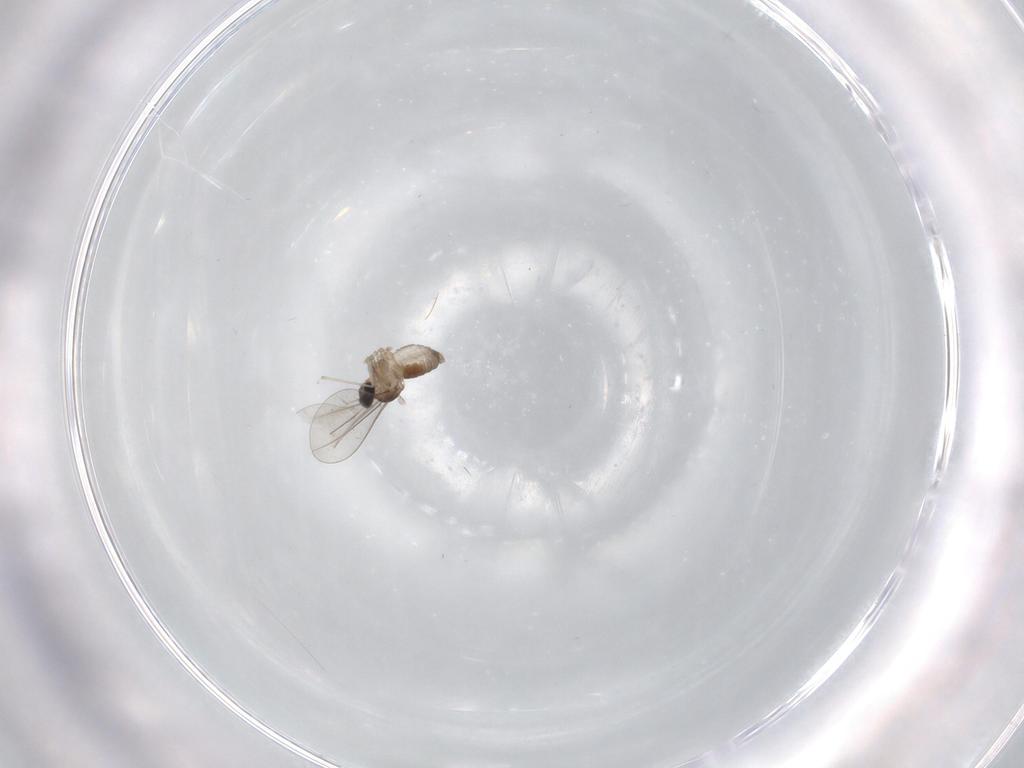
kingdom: Animalia
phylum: Arthropoda
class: Insecta
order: Diptera
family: Cecidomyiidae
